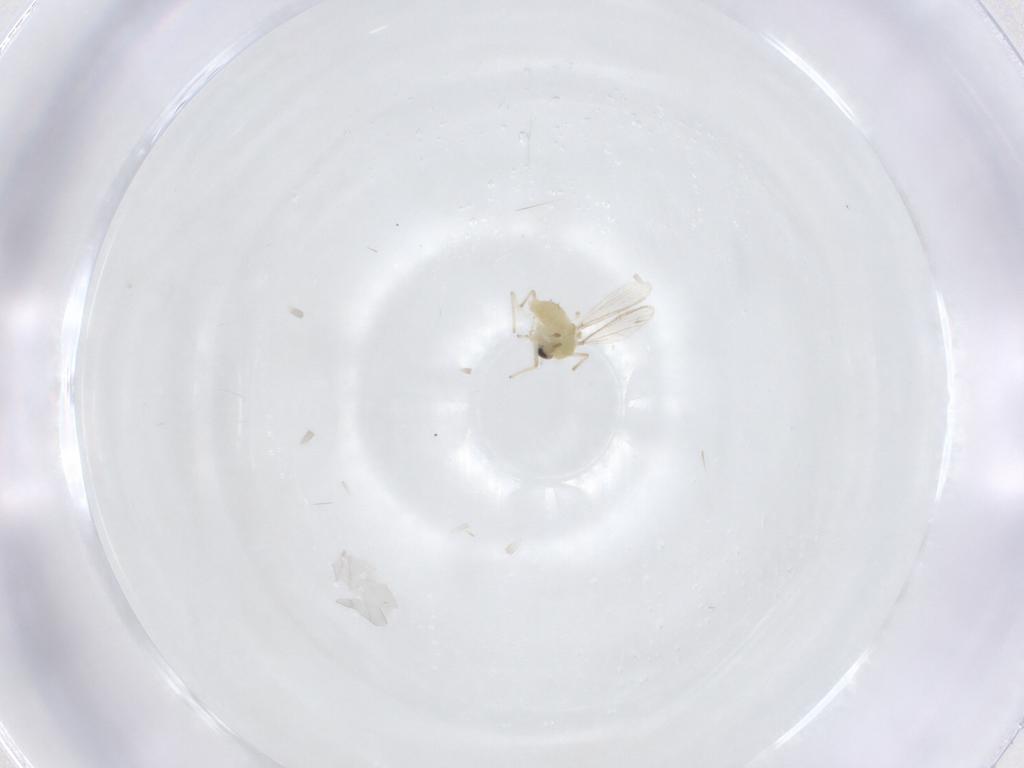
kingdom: Animalia
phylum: Arthropoda
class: Insecta
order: Diptera
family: Chironomidae
